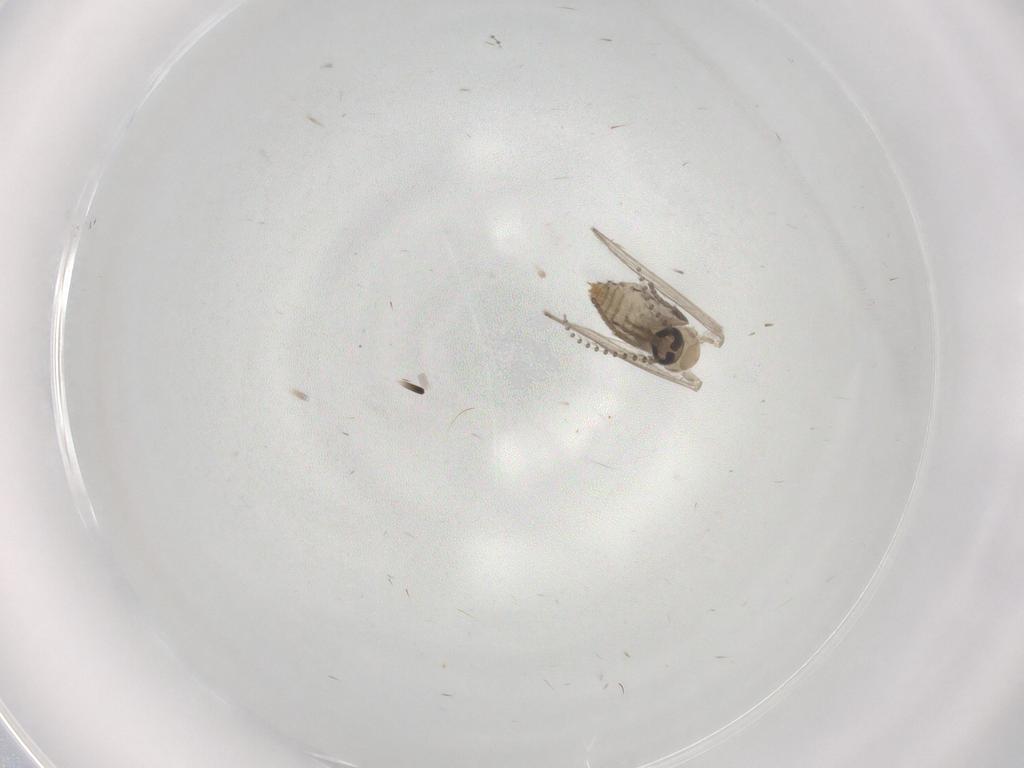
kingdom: Animalia
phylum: Arthropoda
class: Insecta
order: Diptera
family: Psychodidae
